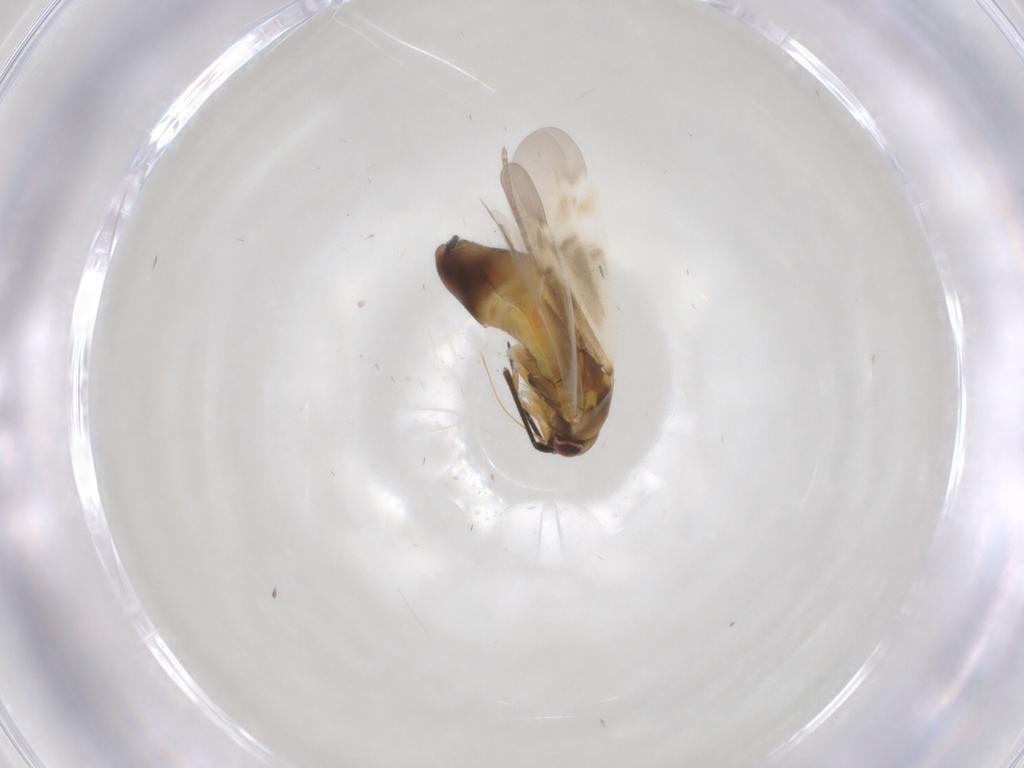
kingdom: Animalia
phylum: Arthropoda
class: Insecta
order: Hemiptera
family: Miridae
